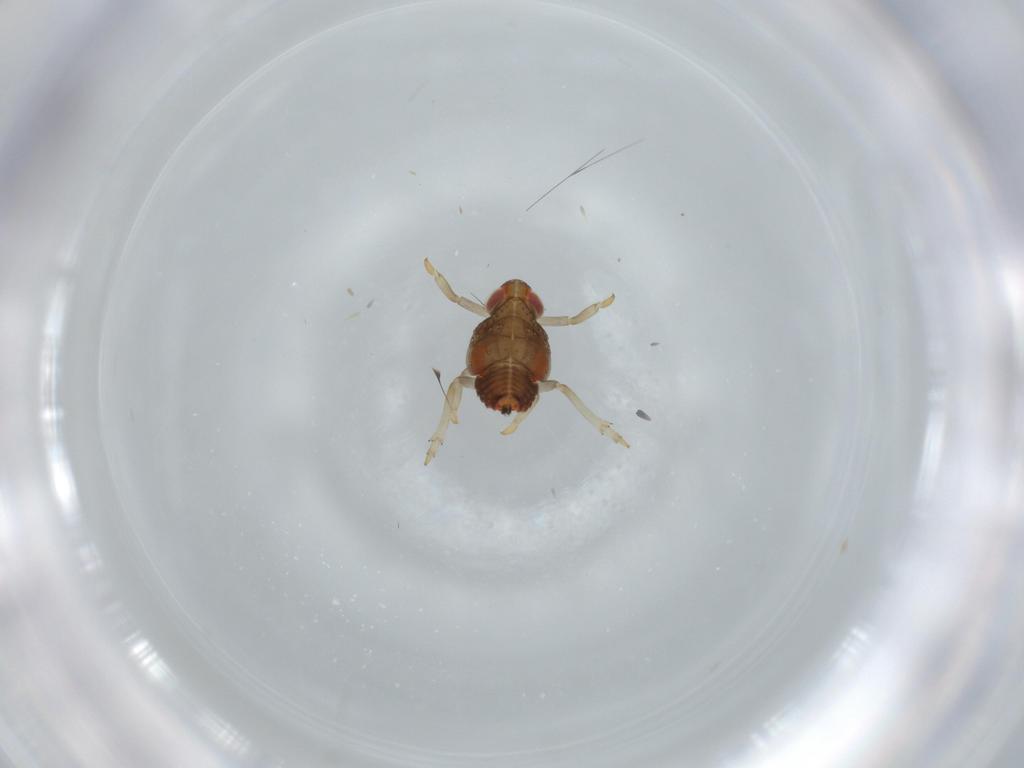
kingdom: Animalia
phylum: Arthropoda
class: Insecta
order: Hemiptera
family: Issidae
